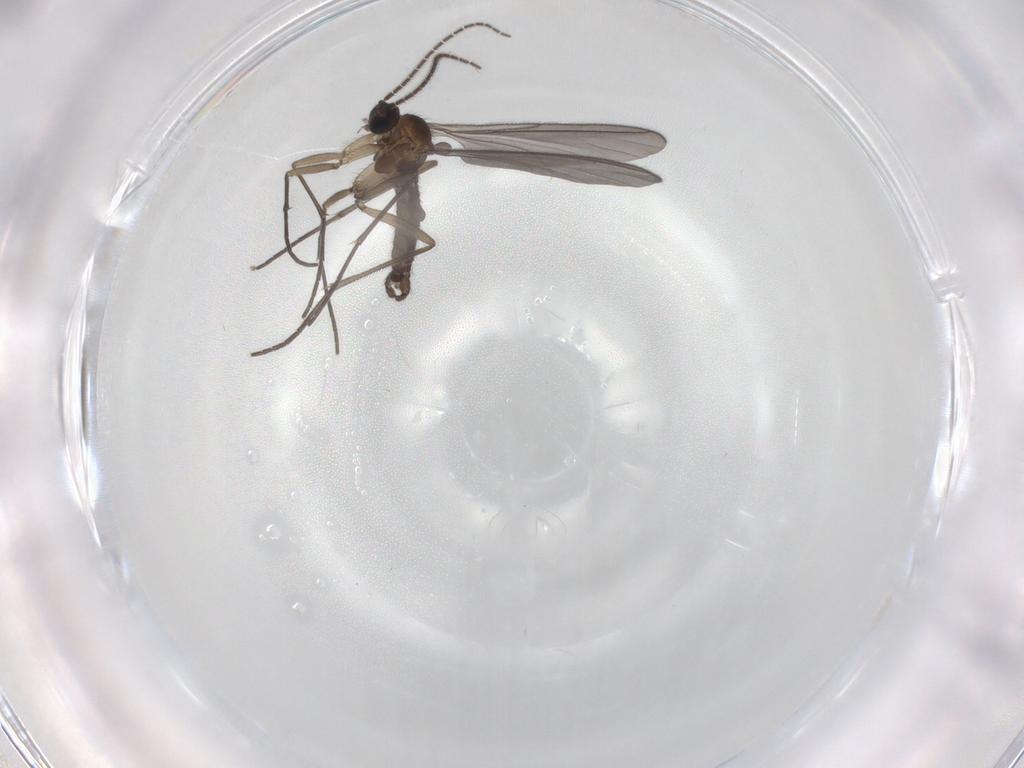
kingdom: Animalia
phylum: Arthropoda
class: Insecta
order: Diptera
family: Sciaridae
